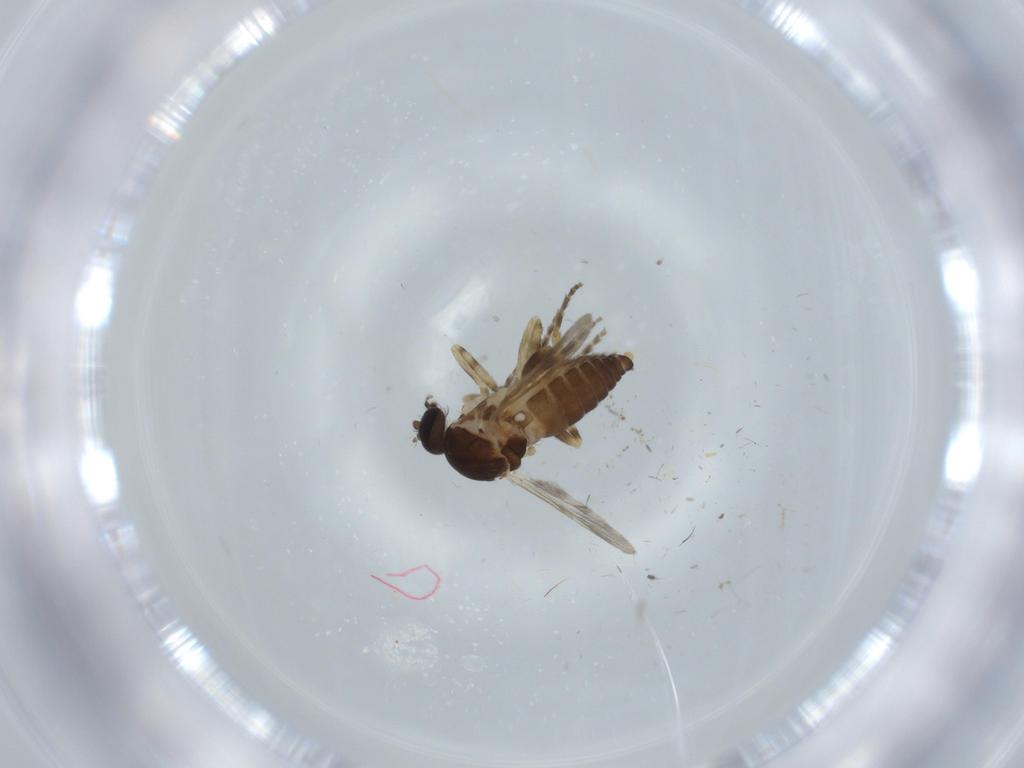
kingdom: Animalia
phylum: Arthropoda
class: Insecta
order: Diptera
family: Ceratopogonidae
